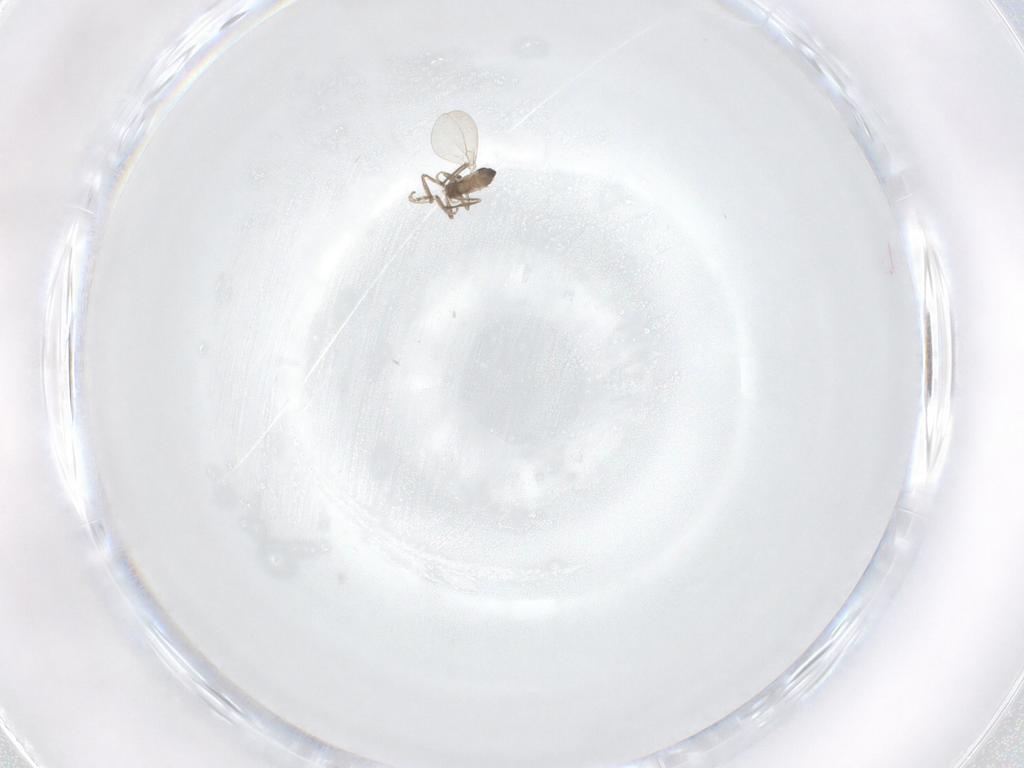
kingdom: Animalia
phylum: Arthropoda
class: Insecta
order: Diptera
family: Cecidomyiidae
